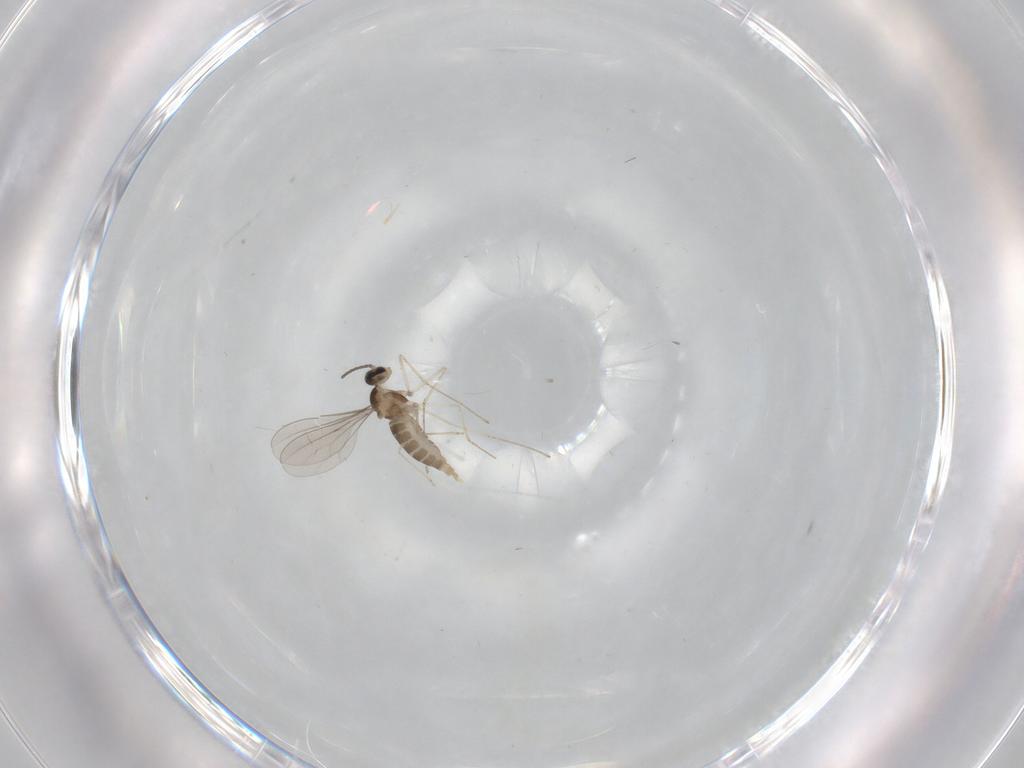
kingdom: Animalia
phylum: Arthropoda
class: Insecta
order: Diptera
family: Cecidomyiidae
